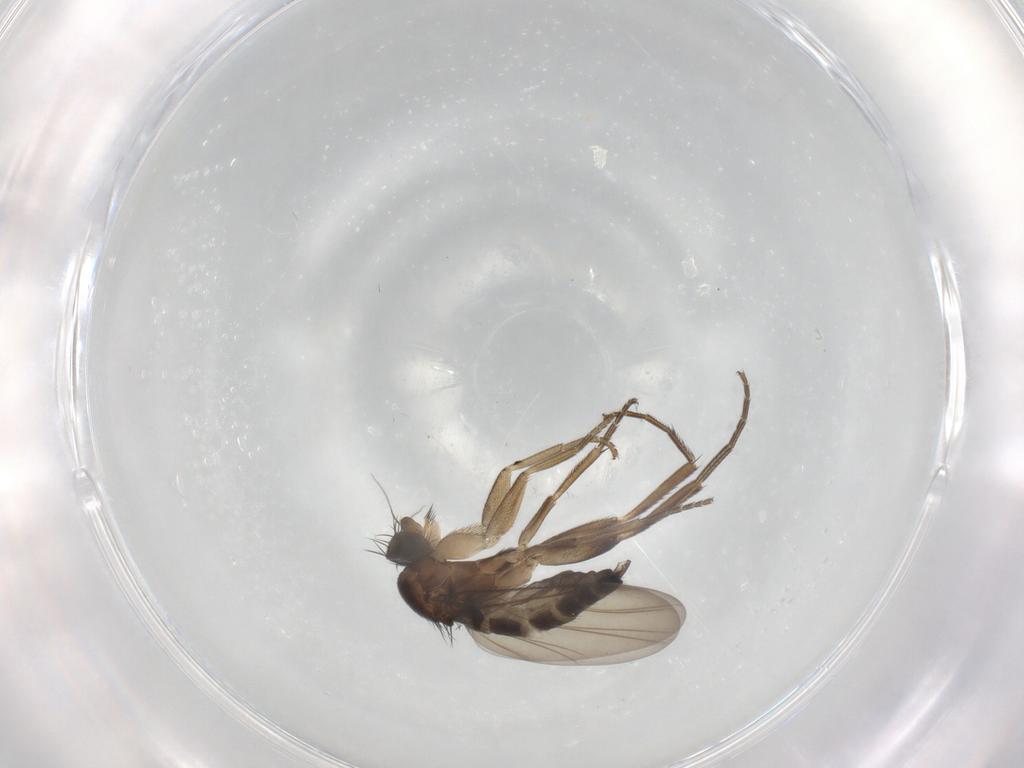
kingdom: Animalia
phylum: Arthropoda
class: Insecta
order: Diptera
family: Phoridae
